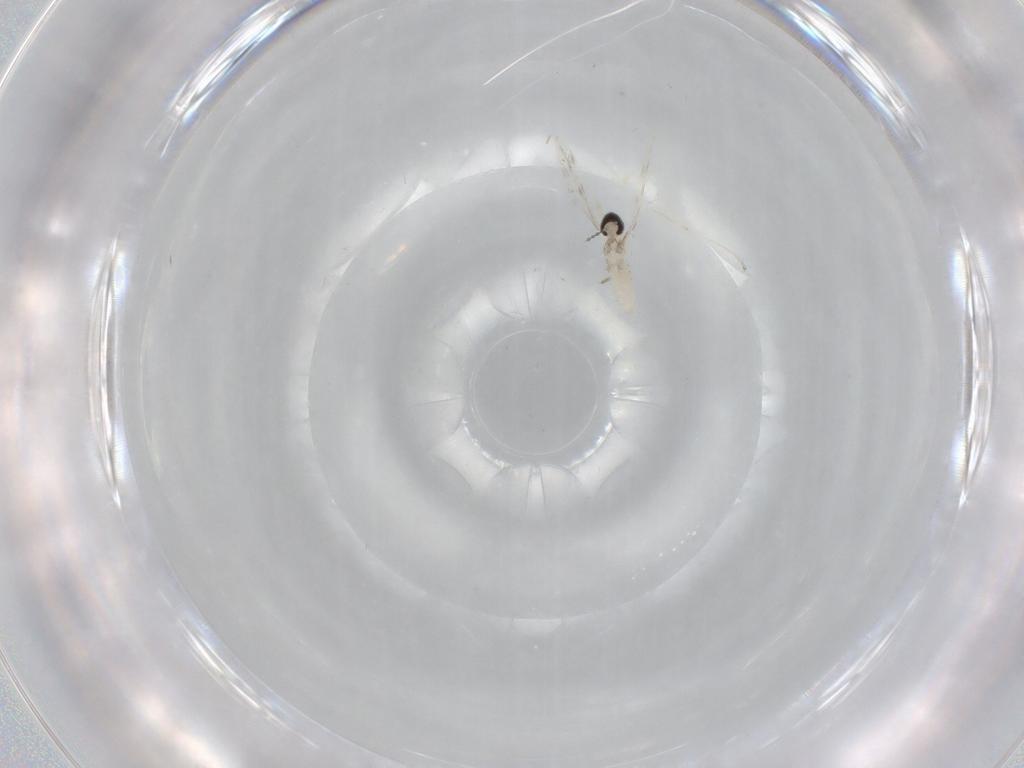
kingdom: Animalia
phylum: Arthropoda
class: Insecta
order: Diptera
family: Cecidomyiidae
